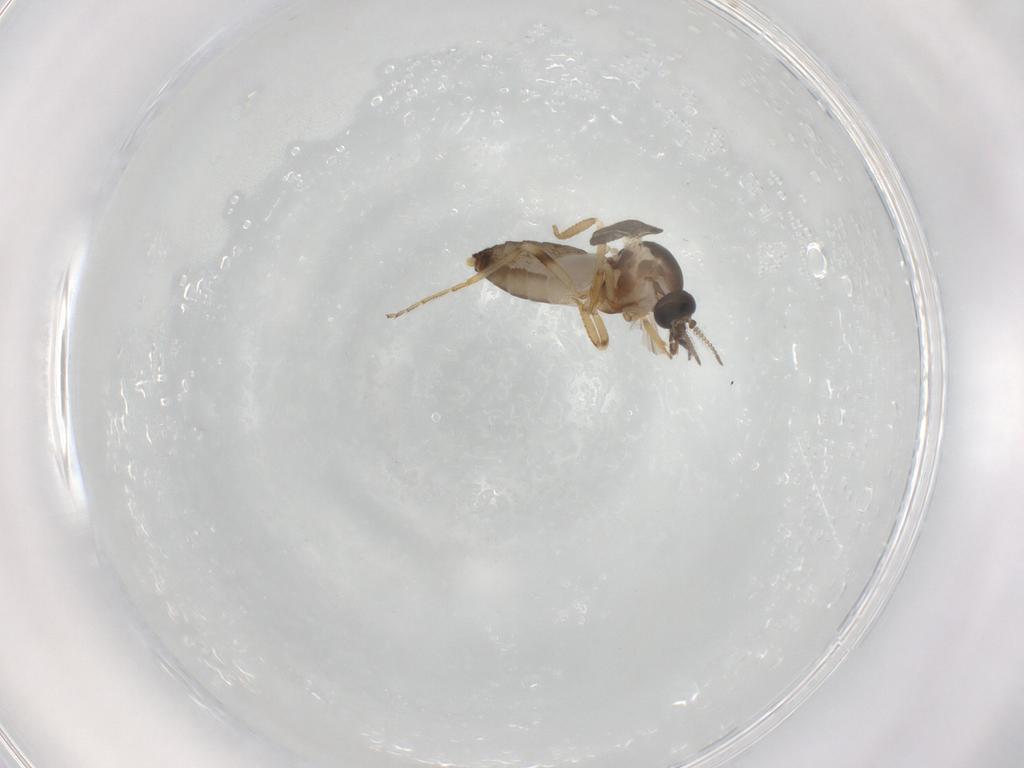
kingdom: Animalia
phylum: Arthropoda
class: Insecta
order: Diptera
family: Ceratopogonidae
